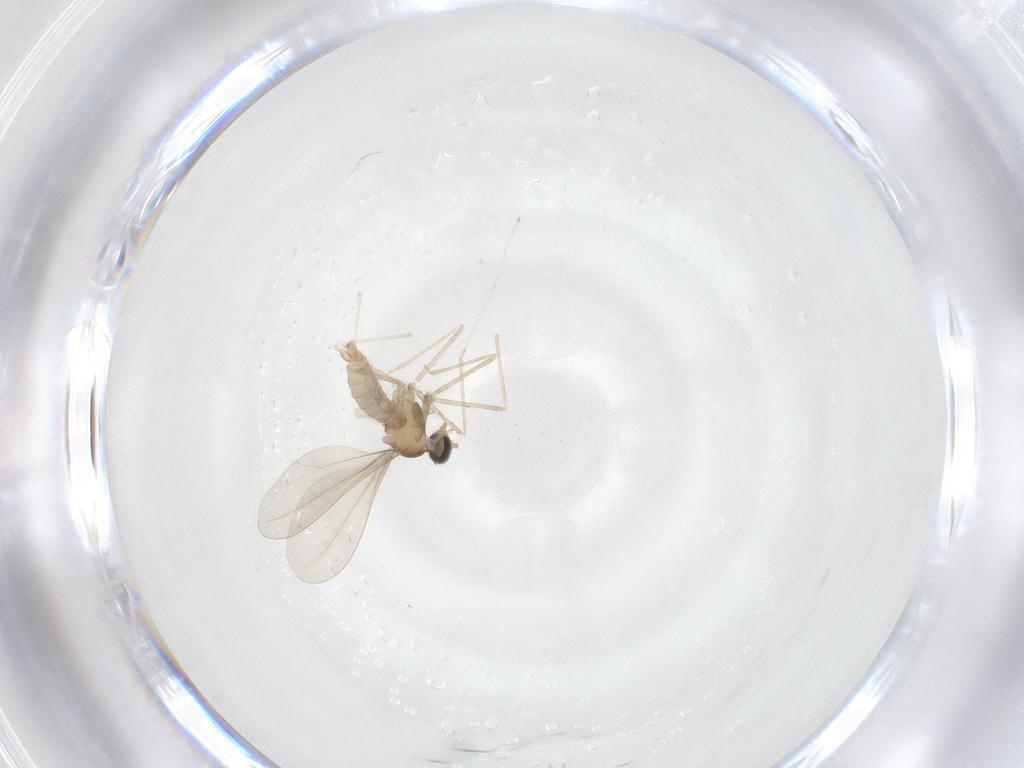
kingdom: Animalia
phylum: Arthropoda
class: Insecta
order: Diptera
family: Cecidomyiidae
